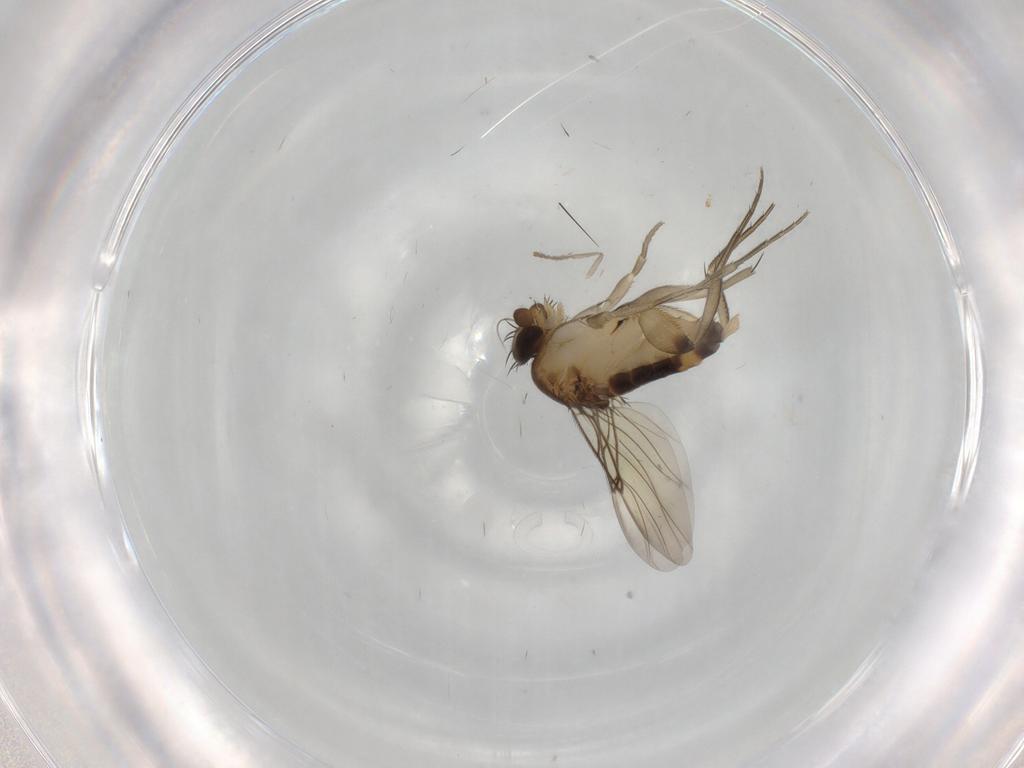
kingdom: Animalia
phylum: Arthropoda
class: Insecta
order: Diptera
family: Phoridae
